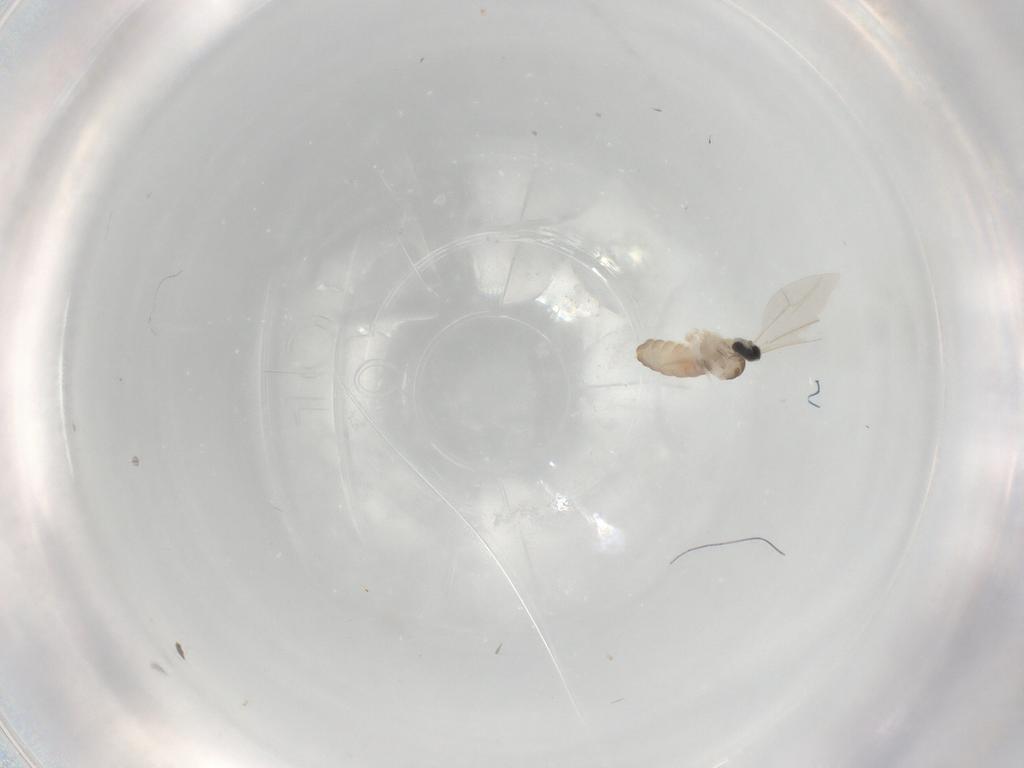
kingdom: Animalia
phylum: Arthropoda
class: Insecta
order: Diptera
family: Cecidomyiidae
